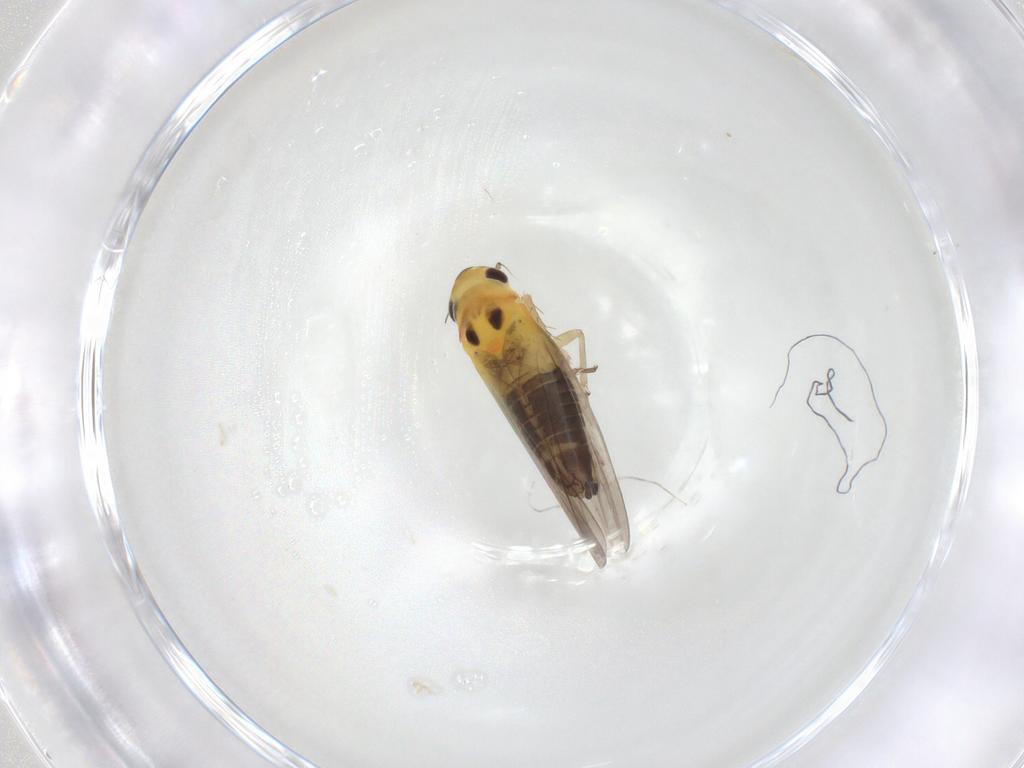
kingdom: Animalia
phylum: Arthropoda
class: Insecta
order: Hemiptera
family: Cicadellidae
